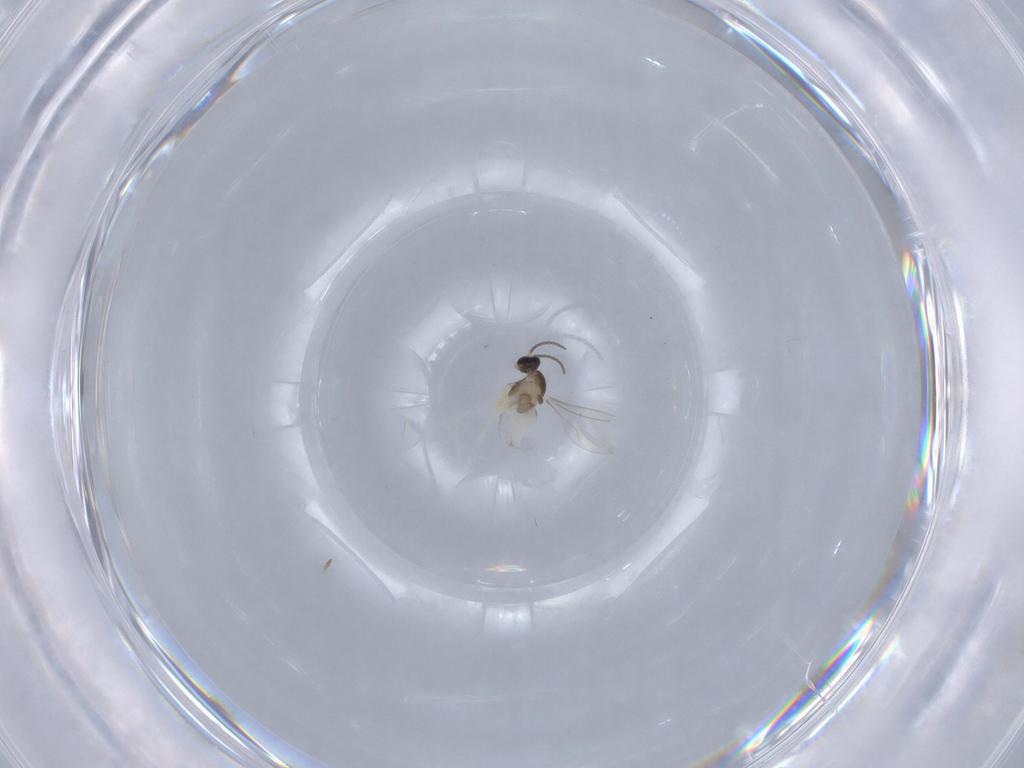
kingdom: Animalia
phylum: Arthropoda
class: Insecta
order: Diptera
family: Cecidomyiidae
